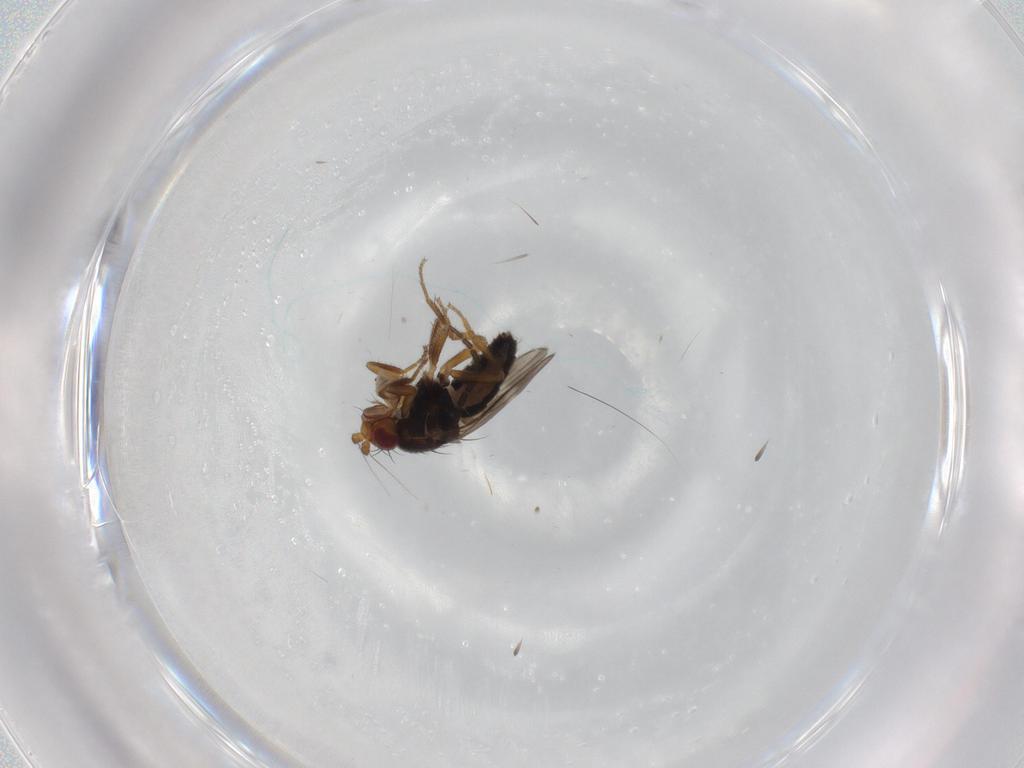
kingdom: Animalia
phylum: Arthropoda
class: Insecta
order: Diptera
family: Sphaeroceridae
